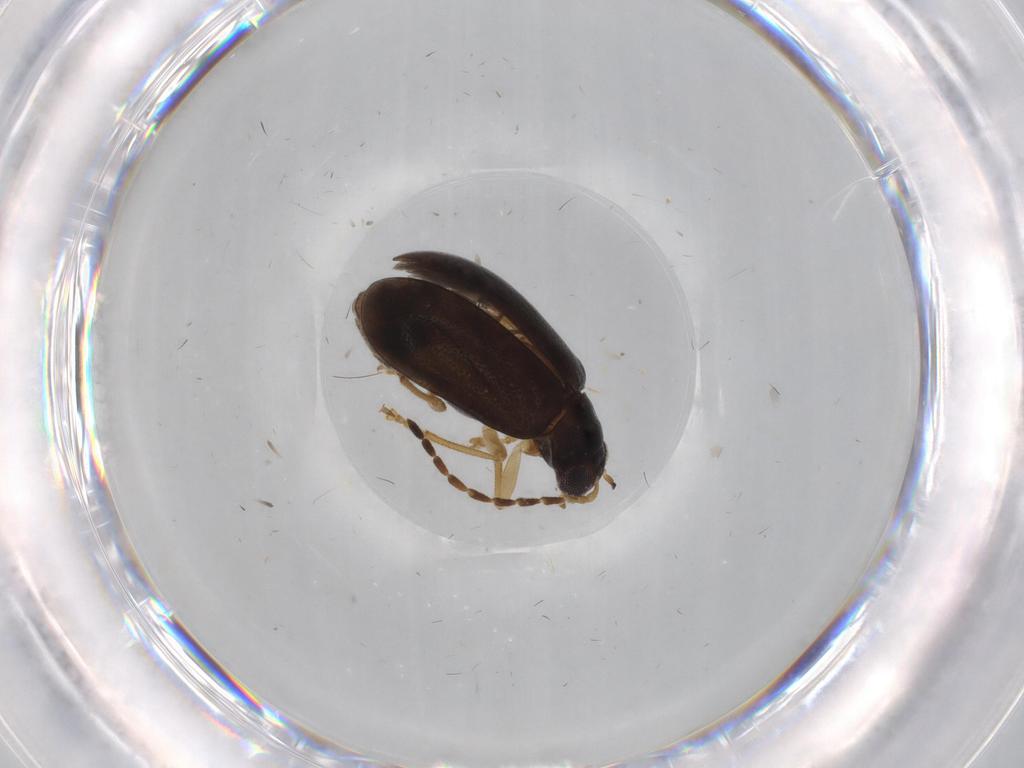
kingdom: Animalia
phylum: Arthropoda
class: Insecta
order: Coleoptera
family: Chrysomelidae
